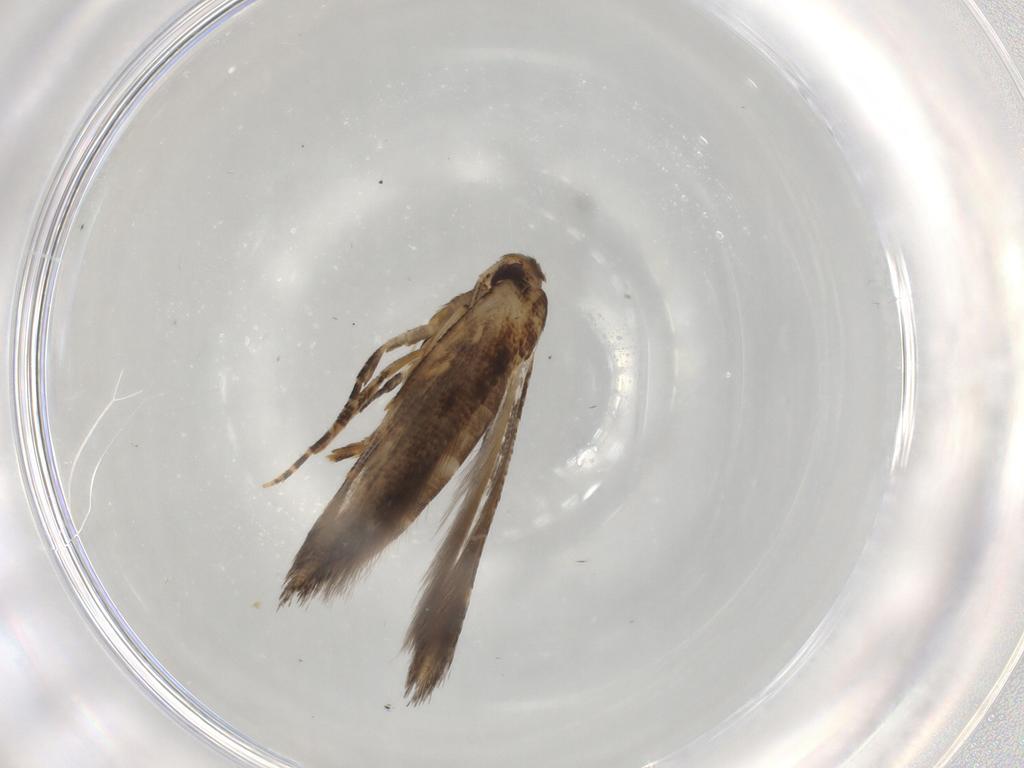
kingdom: Animalia
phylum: Arthropoda
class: Insecta
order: Lepidoptera
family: Cosmopterigidae
